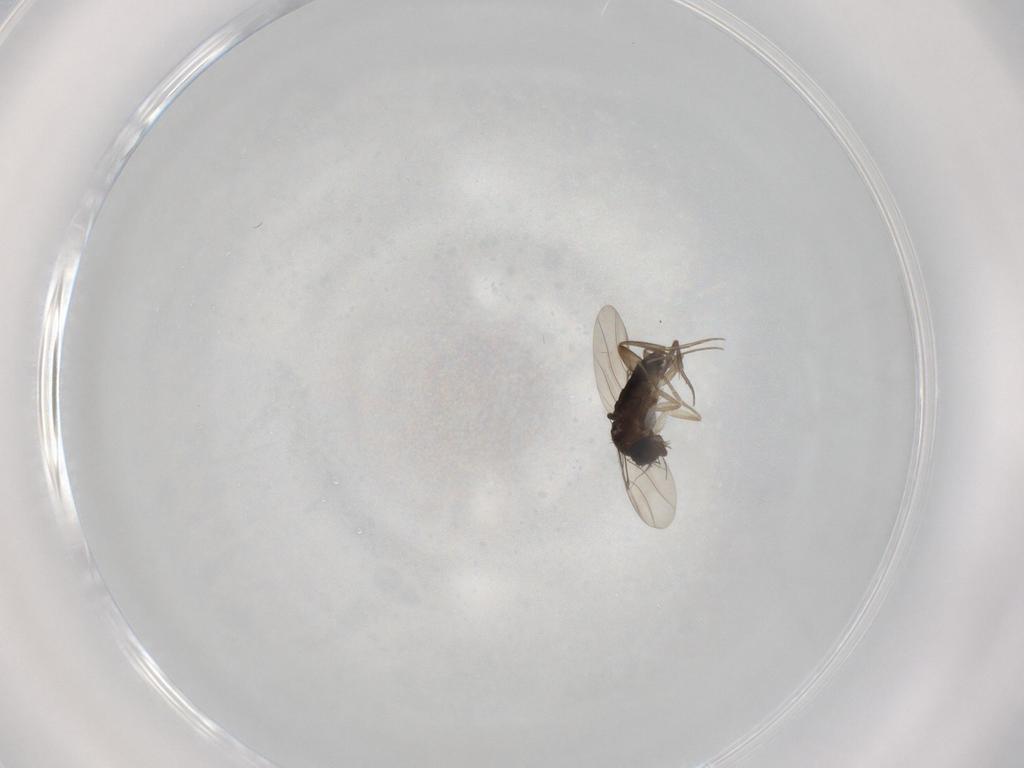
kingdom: Animalia
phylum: Arthropoda
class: Insecta
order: Diptera
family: Phoridae
